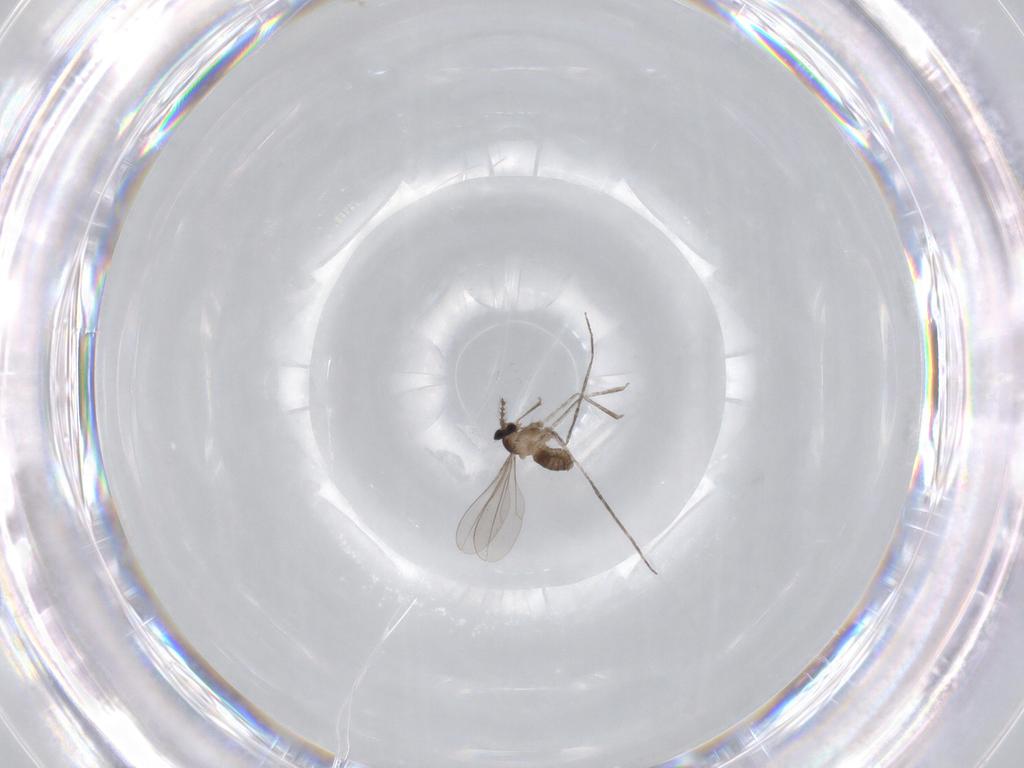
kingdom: Animalia
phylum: Arthropoda
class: Insecta
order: Diptera
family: Cecidomyiidae
